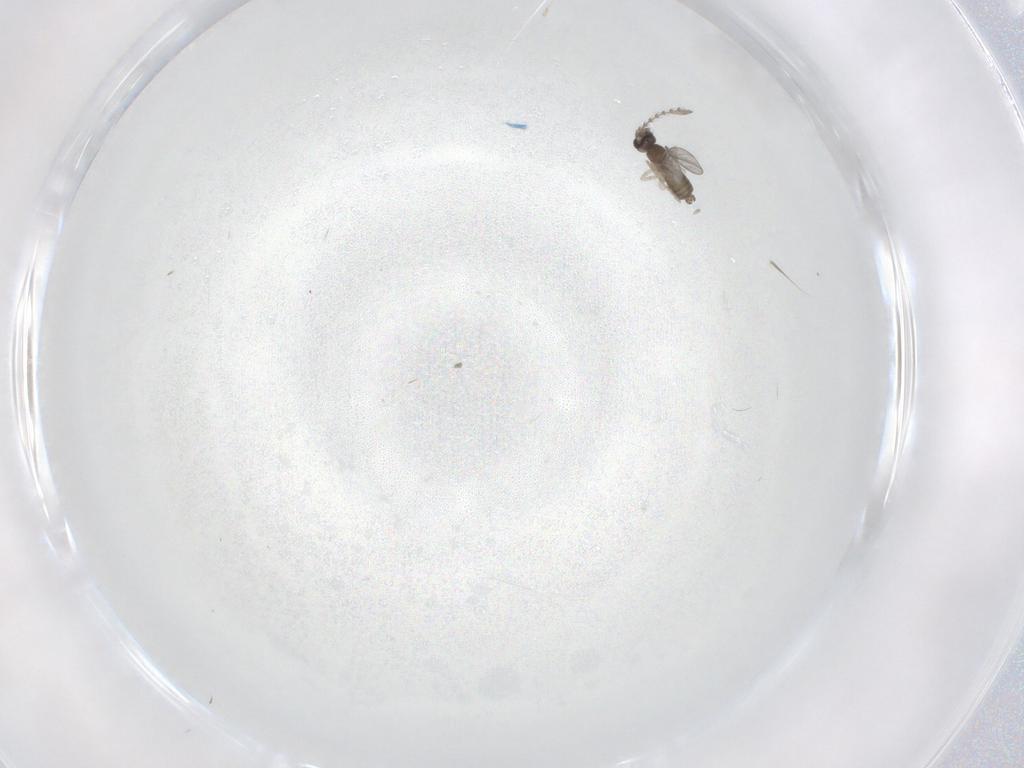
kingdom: Animalia
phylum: Arthropoda
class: Insecta
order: Diptera
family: Cecidomyiidae
